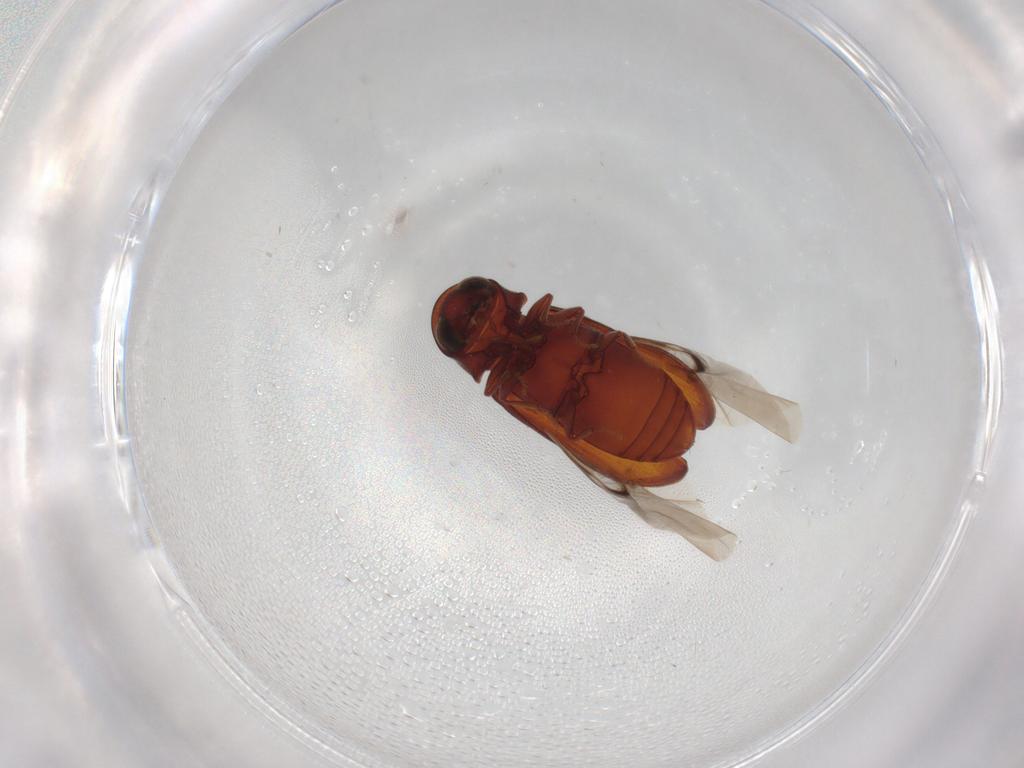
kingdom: Animalia
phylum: Arthropoda
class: Insecta
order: Coleoptera
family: Ptinidae
